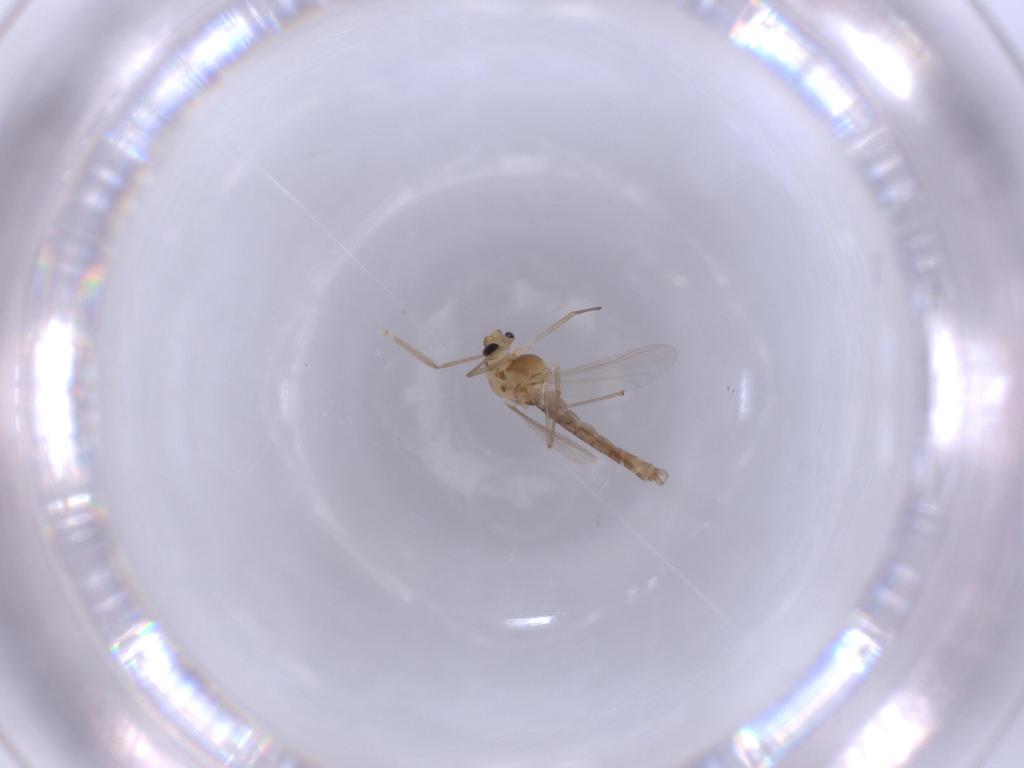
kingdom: Animalia
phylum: Arthropoda
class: Insecta
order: Diptera
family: Chironomidae
